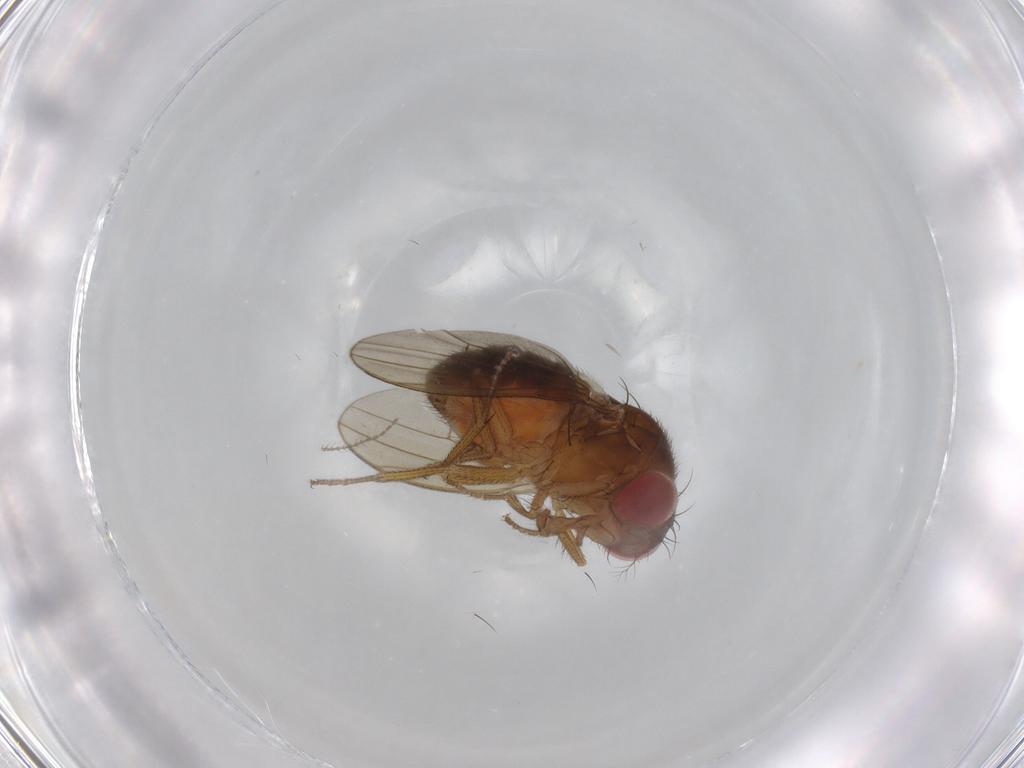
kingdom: Animalia
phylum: Arthropoda
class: Insecta
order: Diptera
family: Drosophilidae
